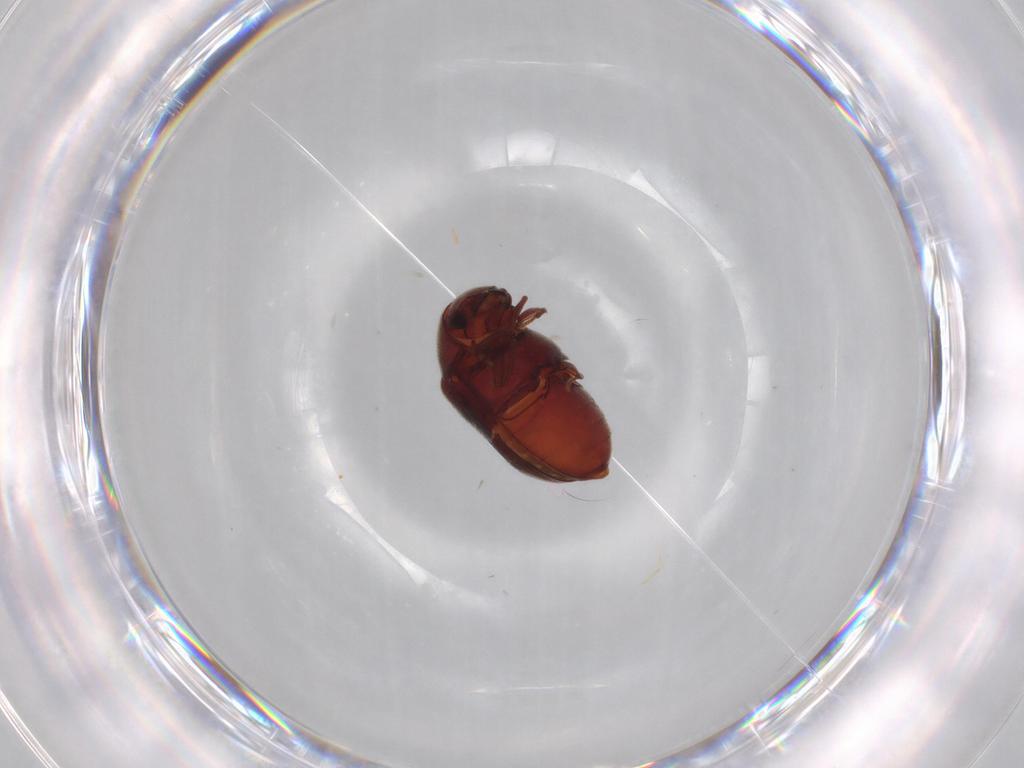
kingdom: Animalia
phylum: Arthropoda
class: Insecta
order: Coleoptera
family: Ptinidae
